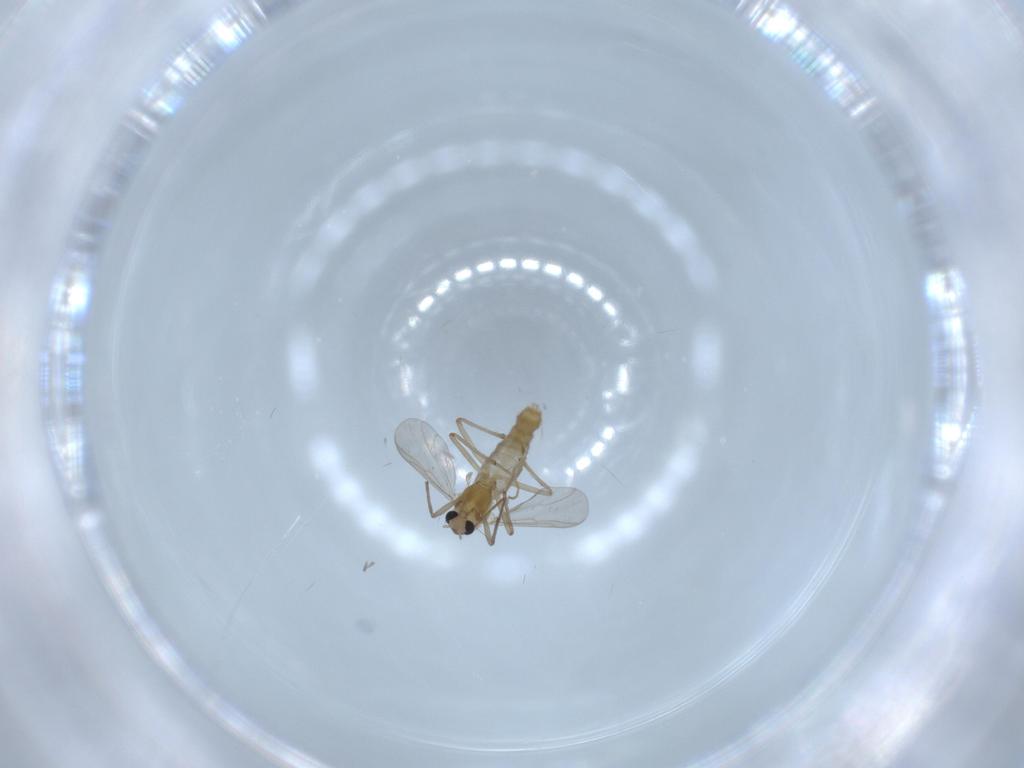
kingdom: Animalia
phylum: Arthropoda
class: Insecta
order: Diptera
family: Chironomidae
